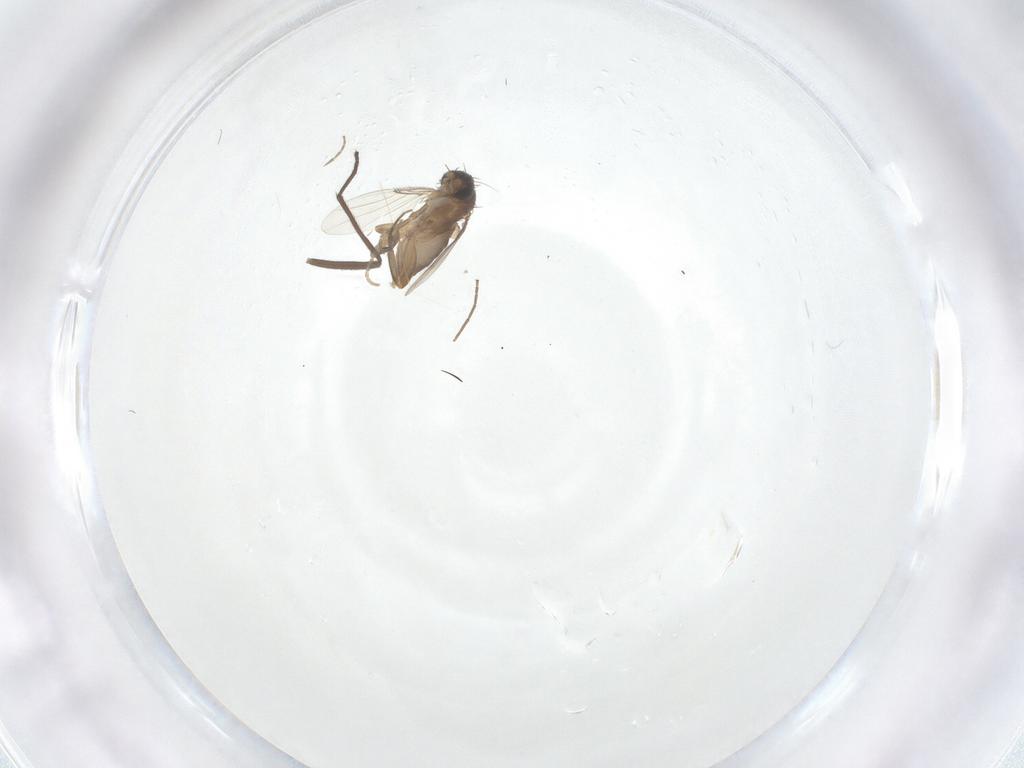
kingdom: Animalia
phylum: Arthropoda
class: Insecta
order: Diptera
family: Phoridae
